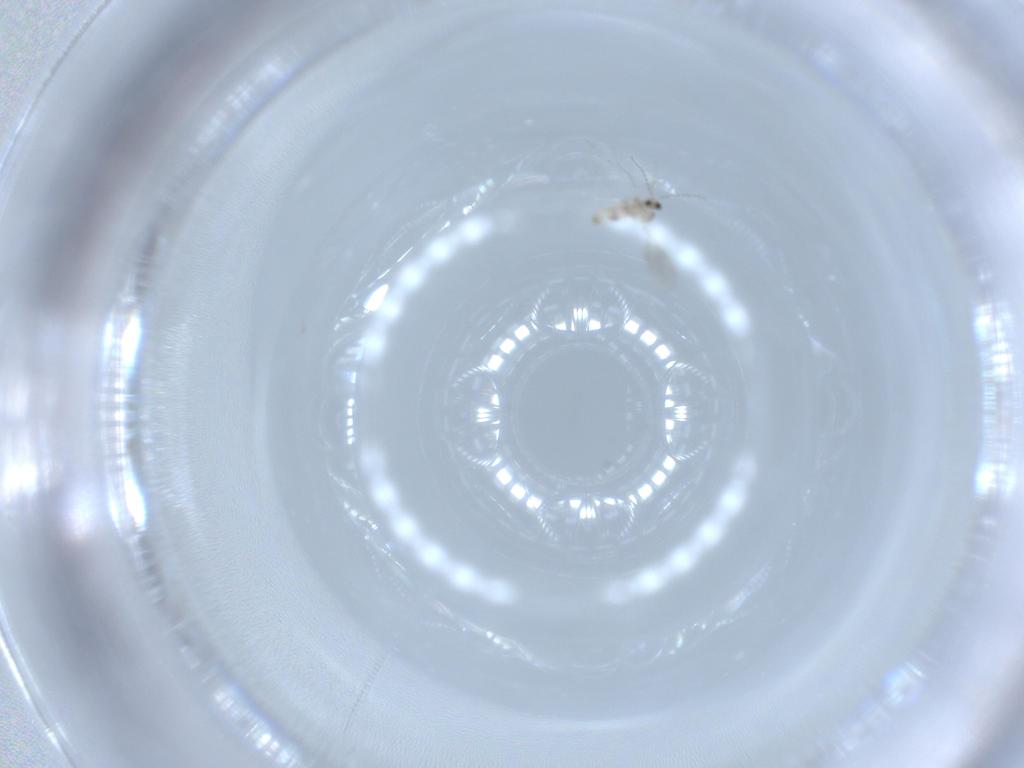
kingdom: Animalia
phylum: Arthropoda
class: Insecta
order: Diptera
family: Cecidomyiidae
